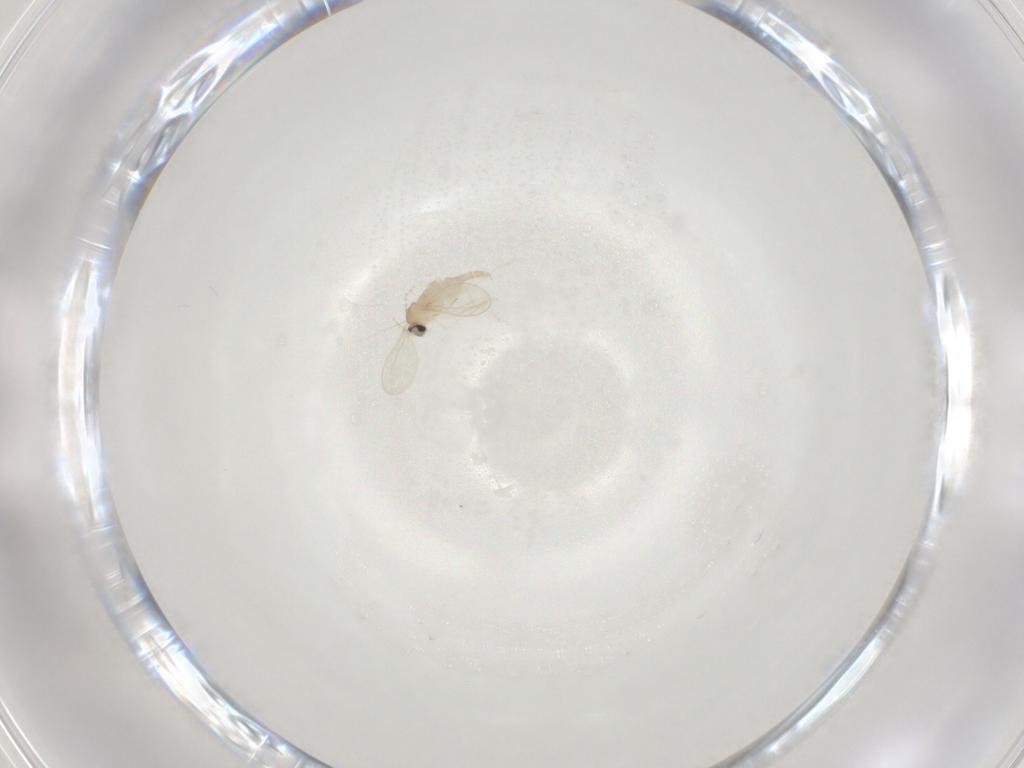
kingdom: Animalia
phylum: Arthropoda
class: Insecta
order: Diptera
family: Cecidomyiidae
